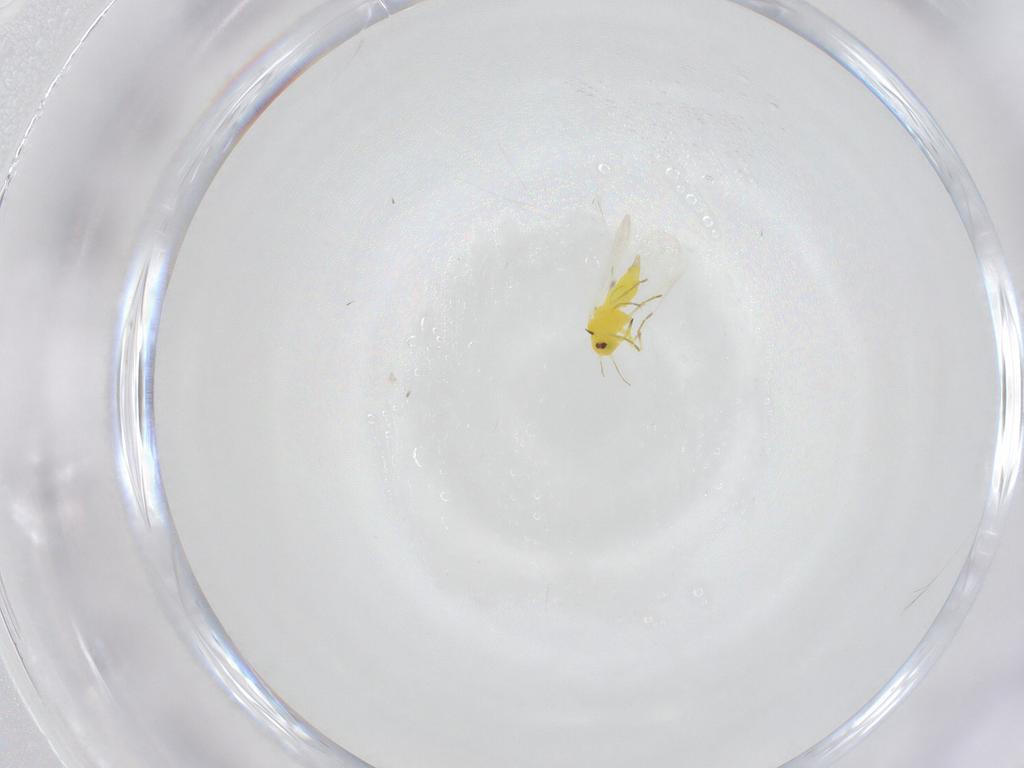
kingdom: Animalia
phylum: Arthropoda
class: Insecta
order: Hemiptera
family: Aleyrodidae
